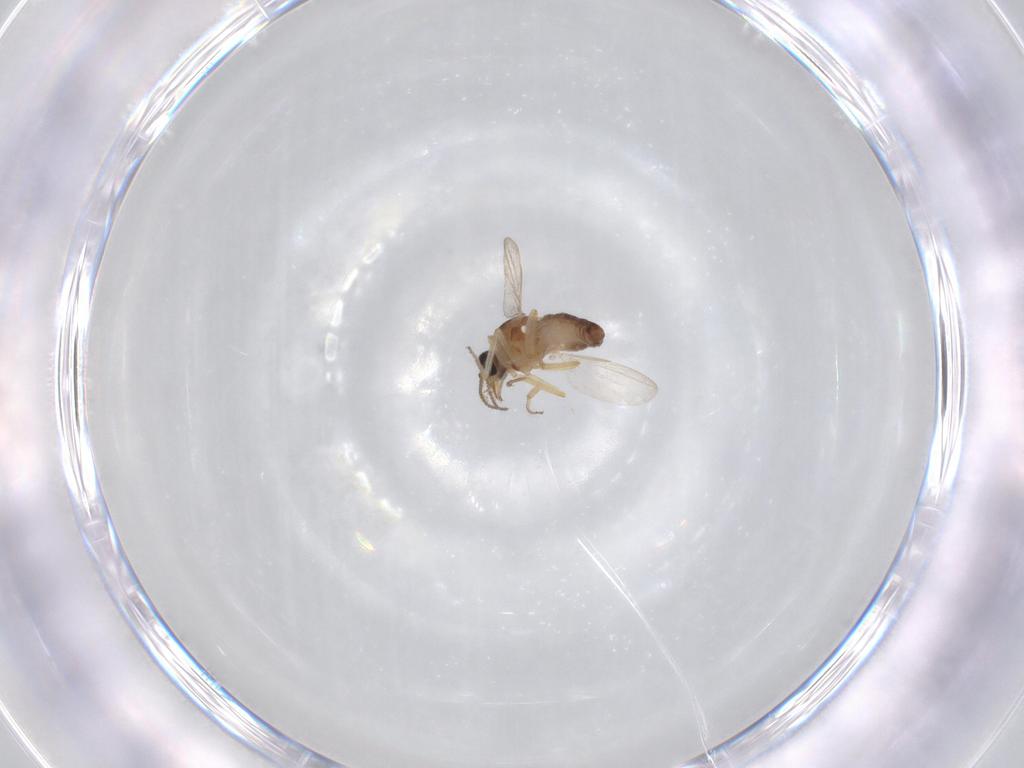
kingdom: Animalia
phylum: Arthropoda
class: Insecta
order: Diptera
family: Ceratopogonidae
